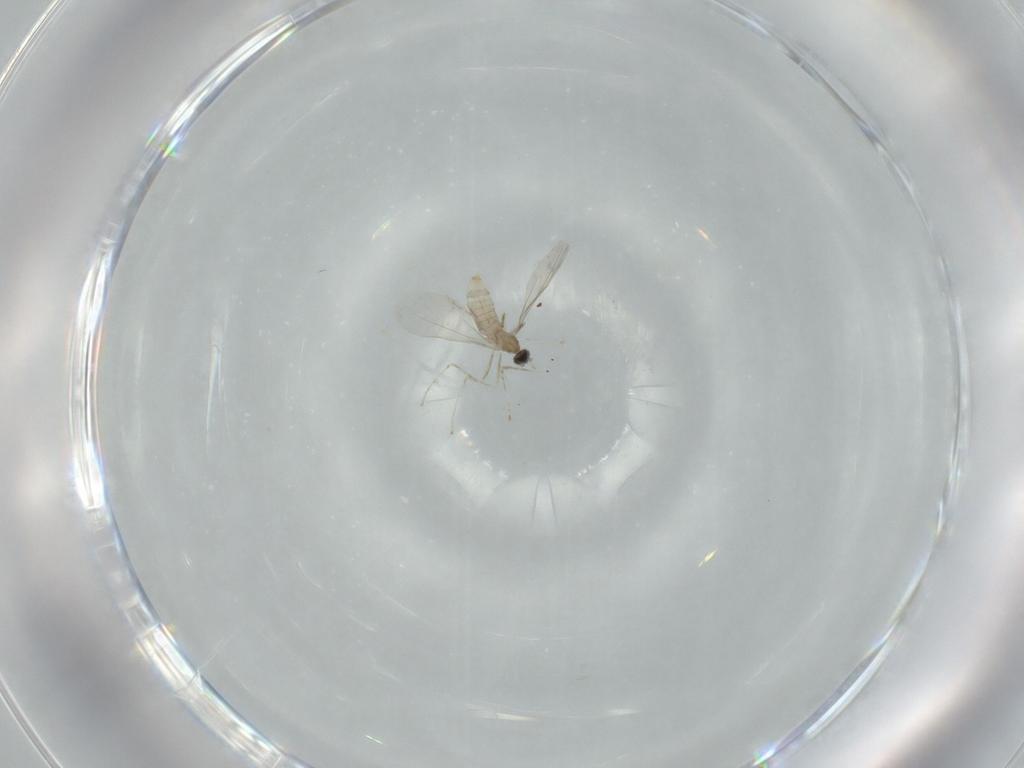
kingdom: Animalia
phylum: Arthropoda
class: Insecta
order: Diptera
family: Cecidomyiidae
